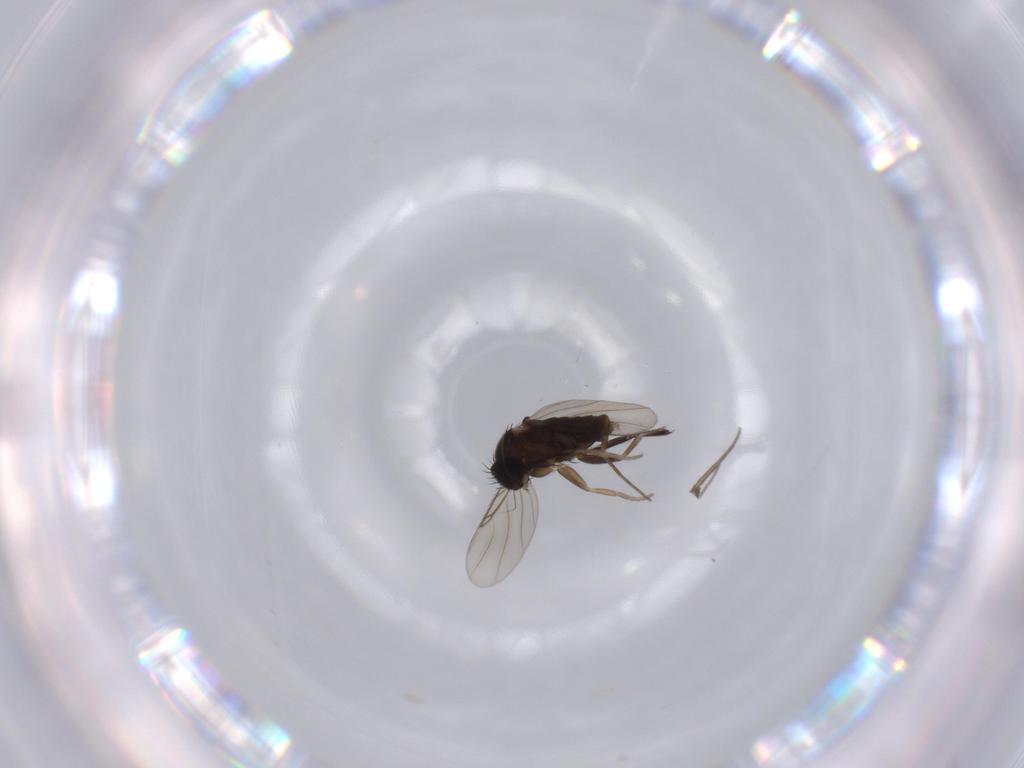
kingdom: Animalia
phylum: Arthropoda
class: Insecta
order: Diptera
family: Phoridae
